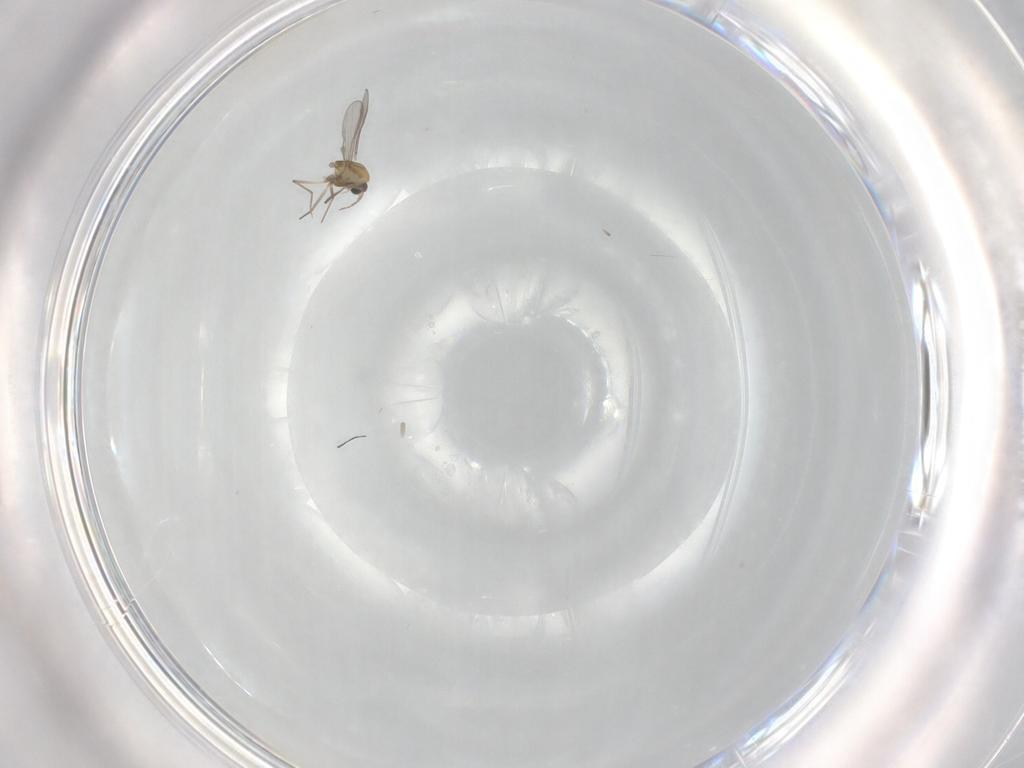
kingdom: Animalia
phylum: Arthropoda
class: Insecta
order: Diptera
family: Chironomidae
